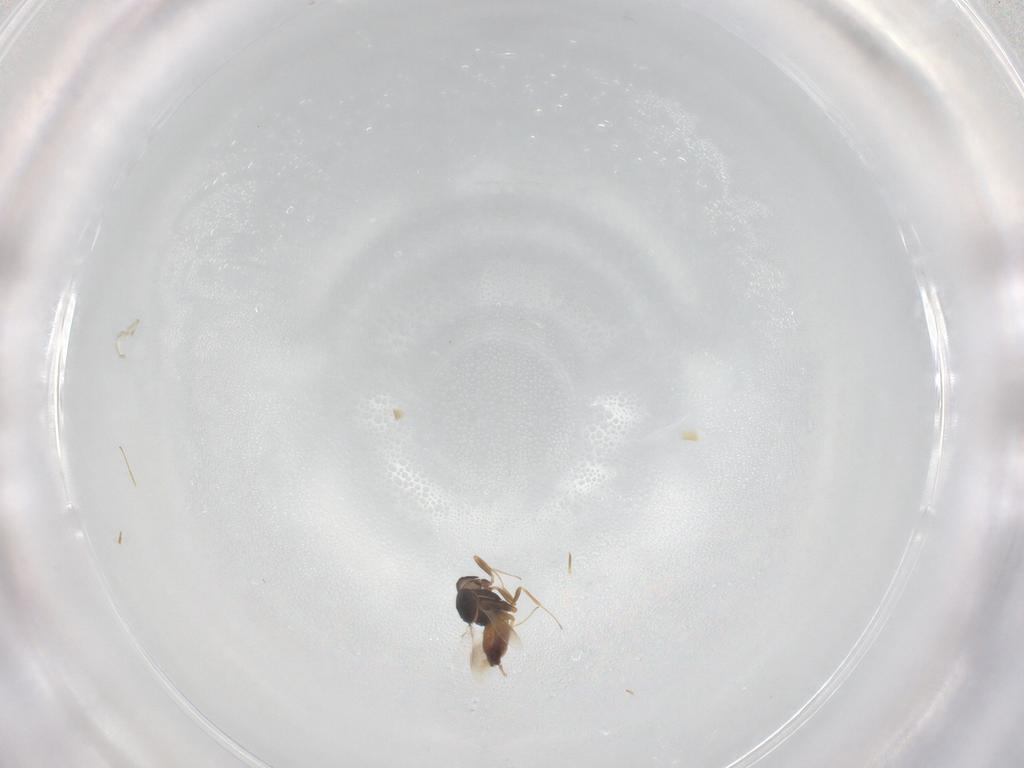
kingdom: Animalia
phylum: Arthropoda
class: Insecta
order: Hymenoptera
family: Scelionidae
